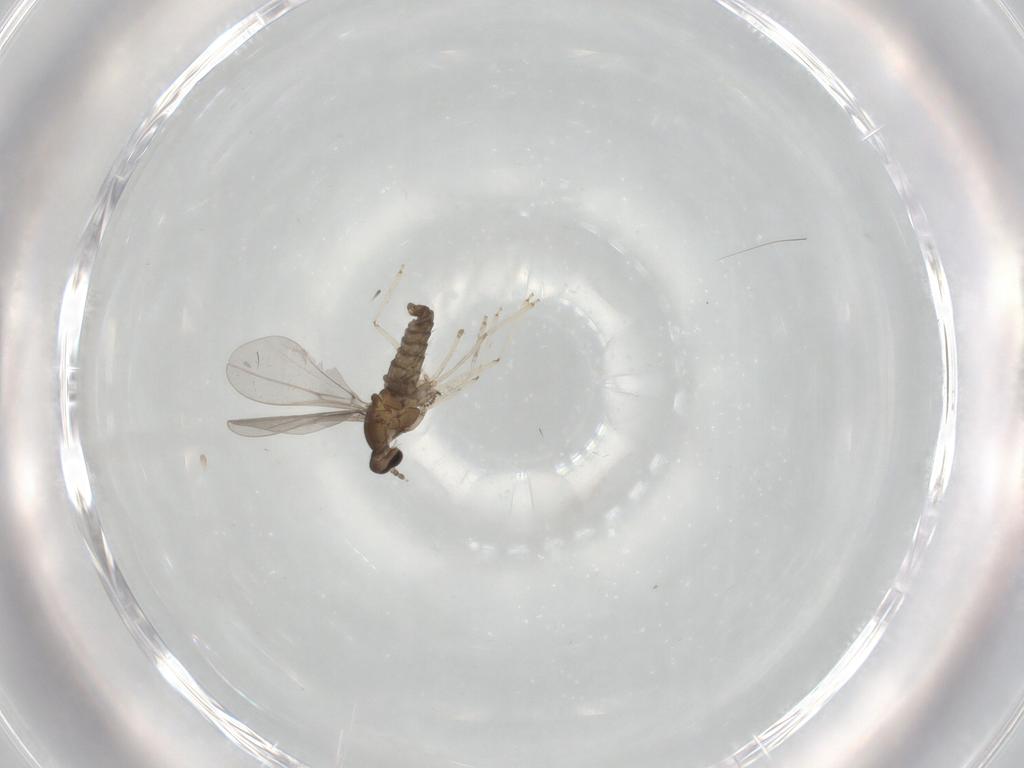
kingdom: Animalia
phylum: Arthropoda
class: Insecta
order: Diptera
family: Cecidomyiidae
